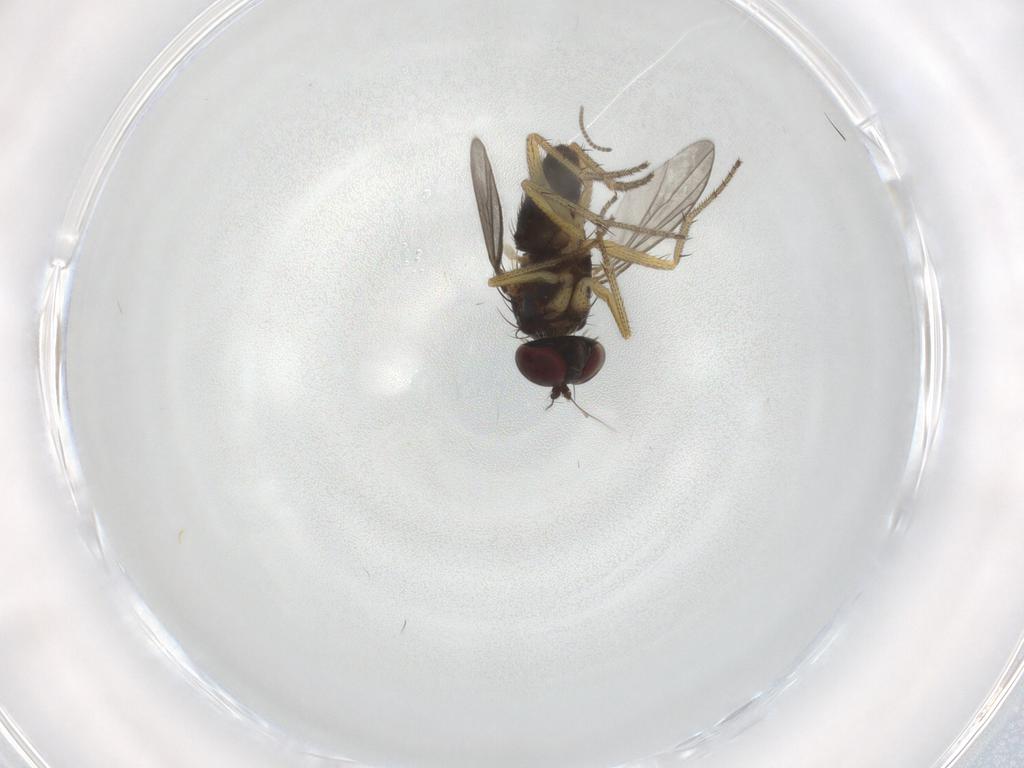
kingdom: Animalia
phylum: Arthropoda
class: Insecta
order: Diptera
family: Dolichopodidae
